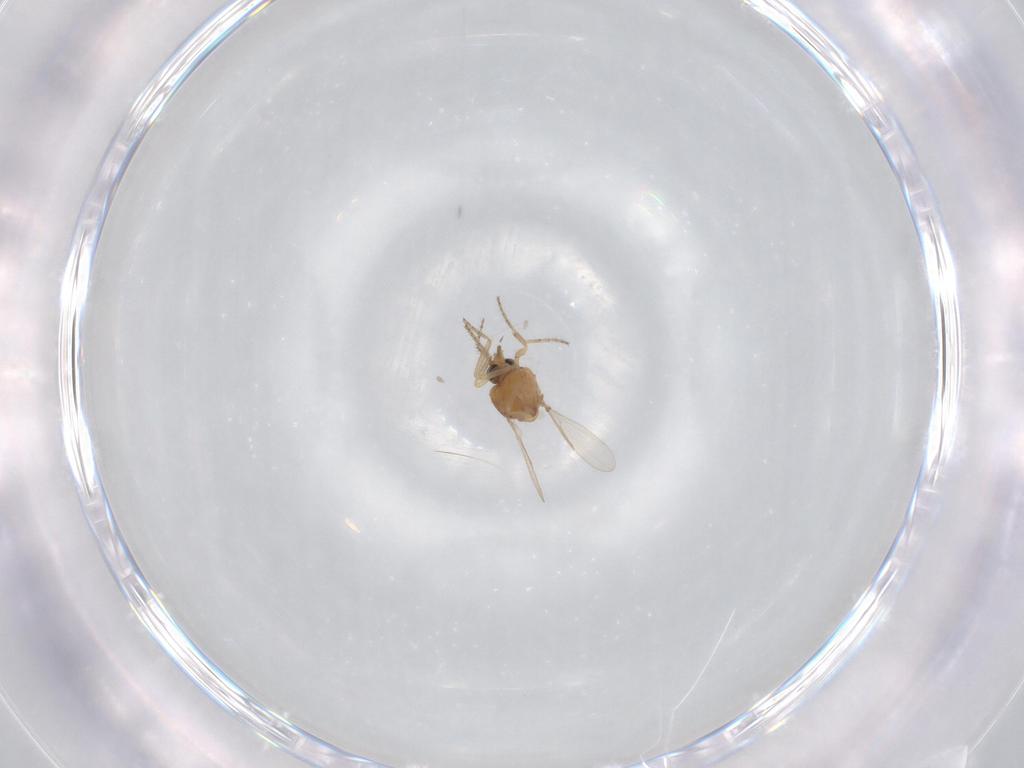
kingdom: Animalia
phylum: Arthropoda
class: Insecta
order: Diptera
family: Ceratopogonidae
